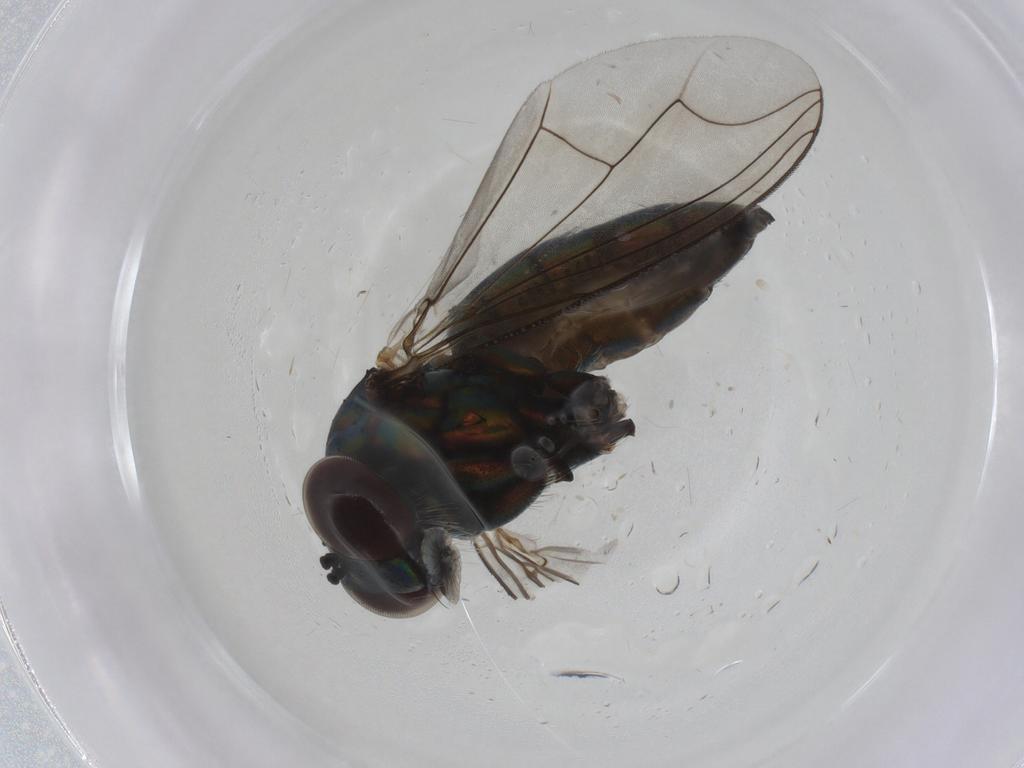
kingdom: Animalia
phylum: Arthropoda
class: Insecta
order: Diptera
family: Dolichopodidae
